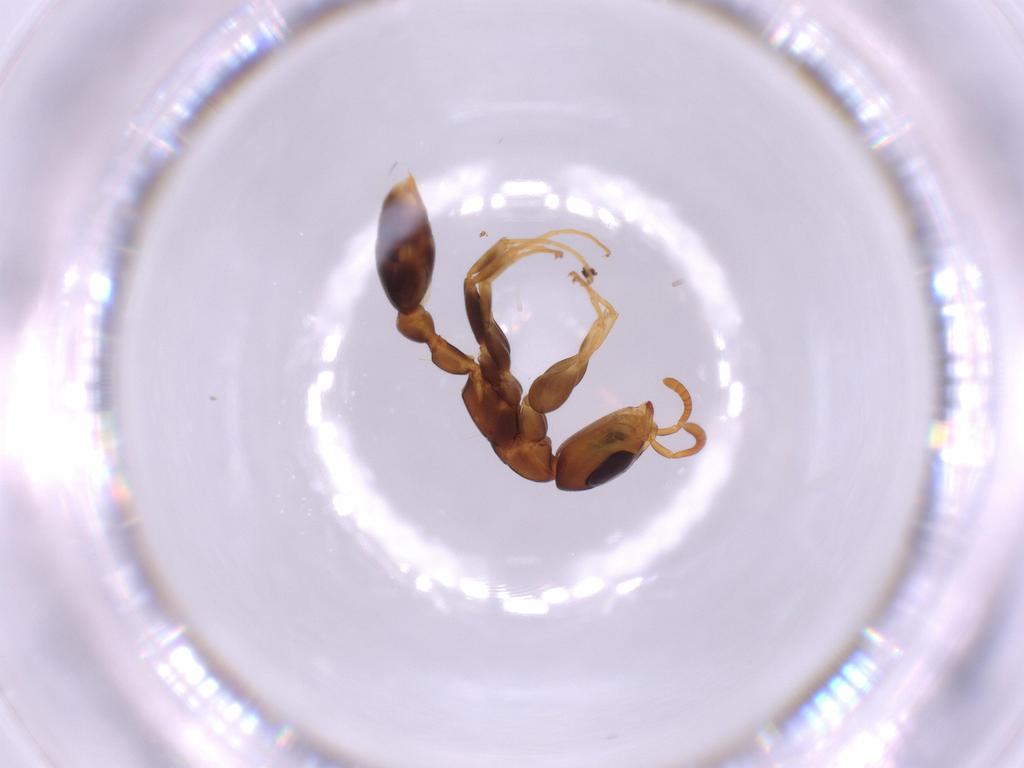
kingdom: Animalia
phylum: Arthropoda
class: Insecta
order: Hymenoptera
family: Formicidae
